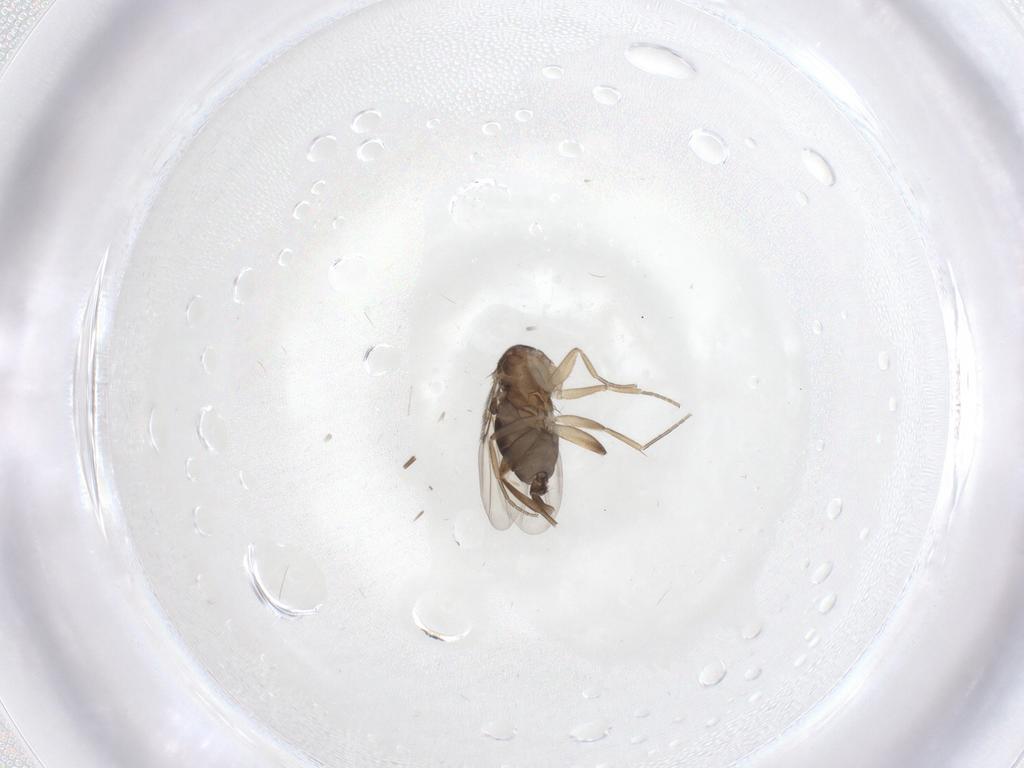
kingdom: Animalia
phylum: Arthropoda
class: Insecta
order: Diptera
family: Phoridae
